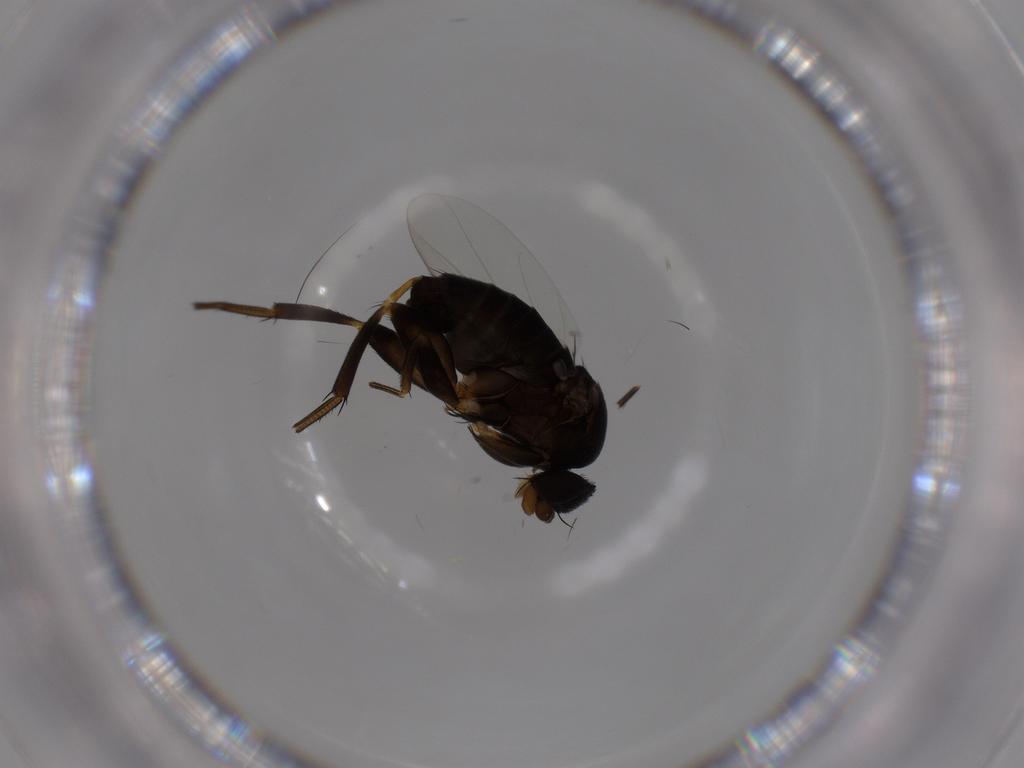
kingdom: Animalia
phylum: Arthropoda
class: Insecta
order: Diptera
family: Phoridae
